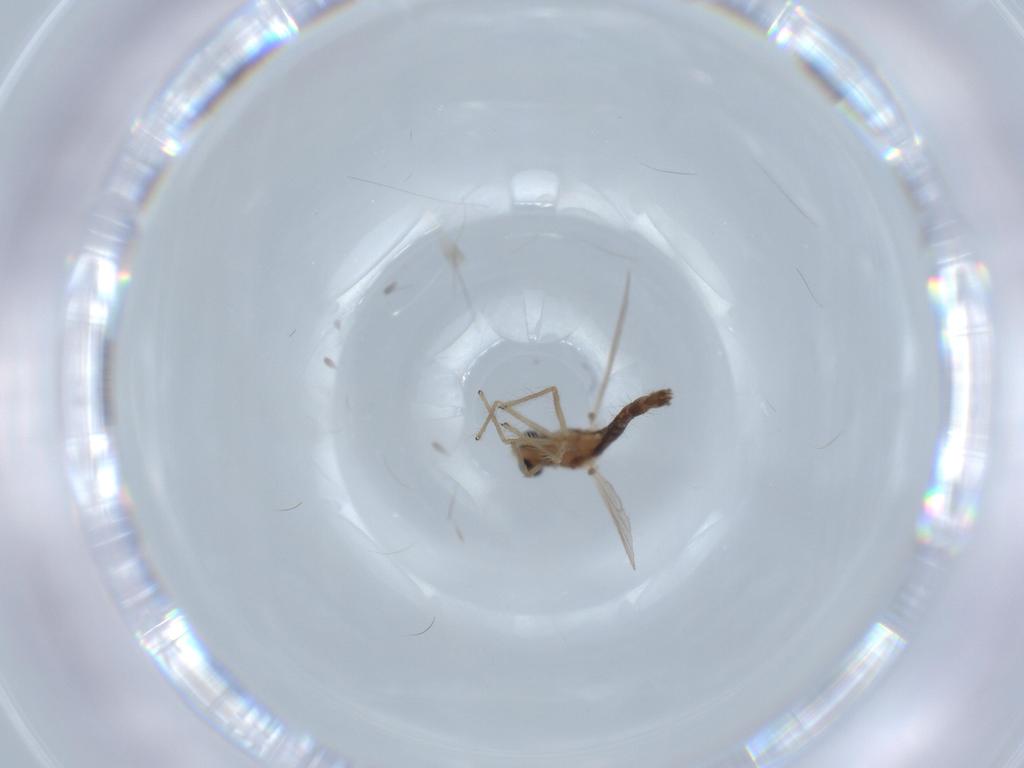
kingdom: Animalia
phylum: Arthropoda
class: Insecta
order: Diptera
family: Chironomidae
